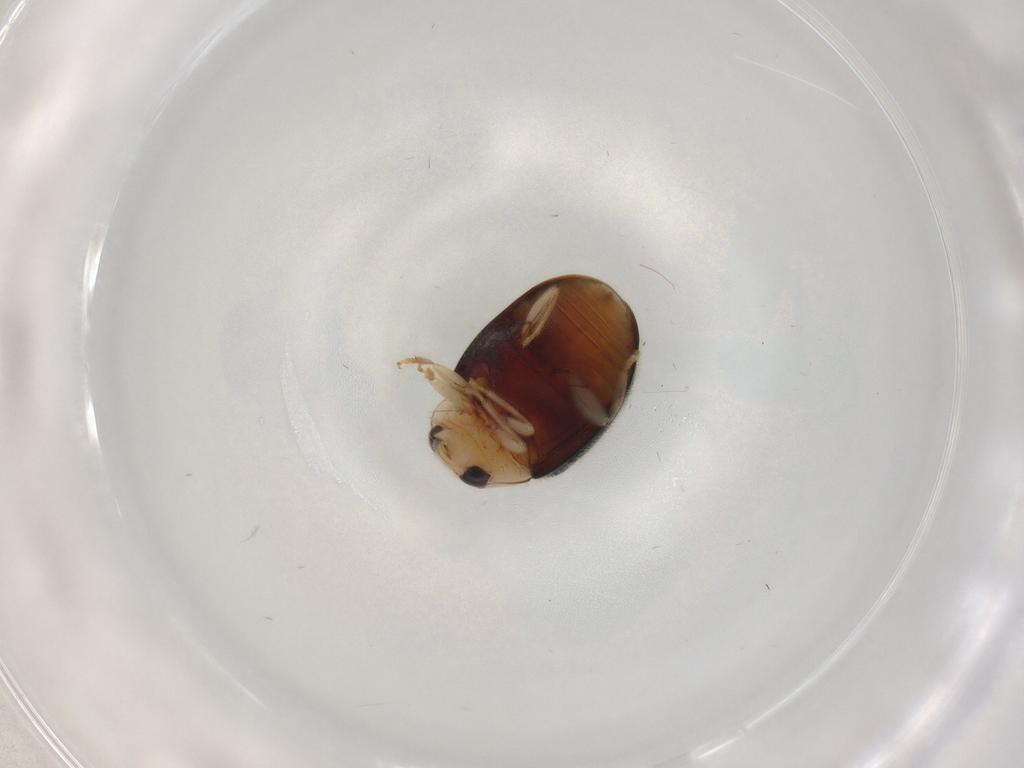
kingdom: Animalia
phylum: Arthropoda
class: Insecta
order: Coleoptera
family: Coccinellidae
